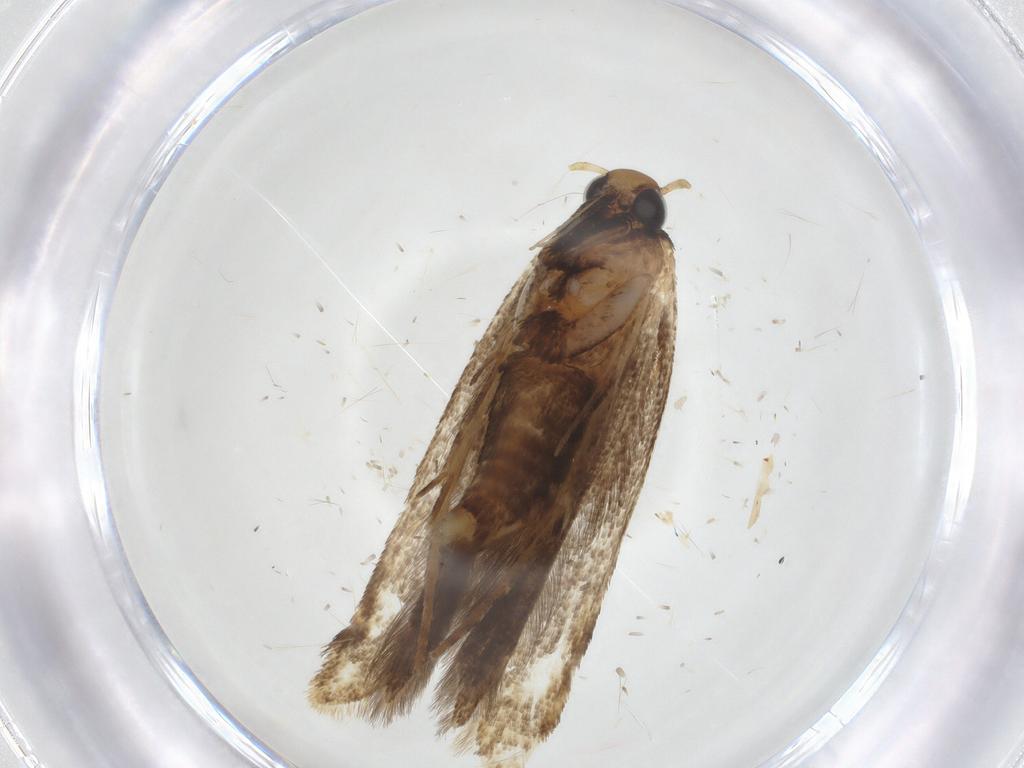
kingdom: Animalia
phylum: Arthropoda
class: Insecta
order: Lepidoptera
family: Gelechiidae
